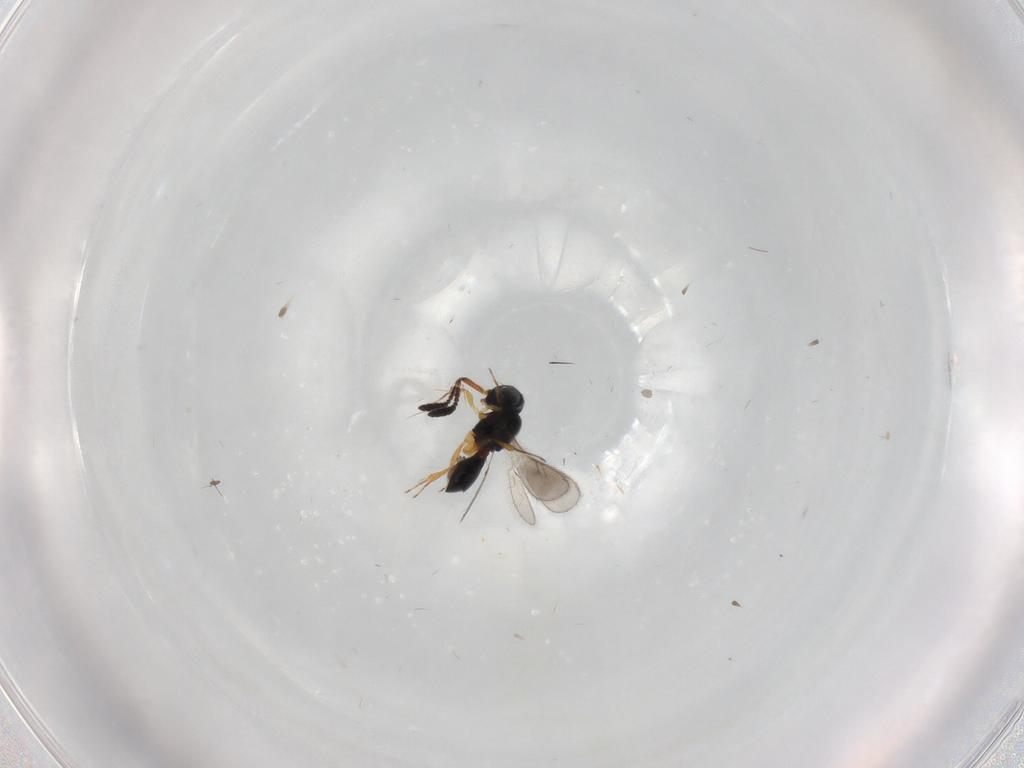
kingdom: Animalia
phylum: Arthropoda
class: Insecta
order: Hymenoptera
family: Scelionidae
